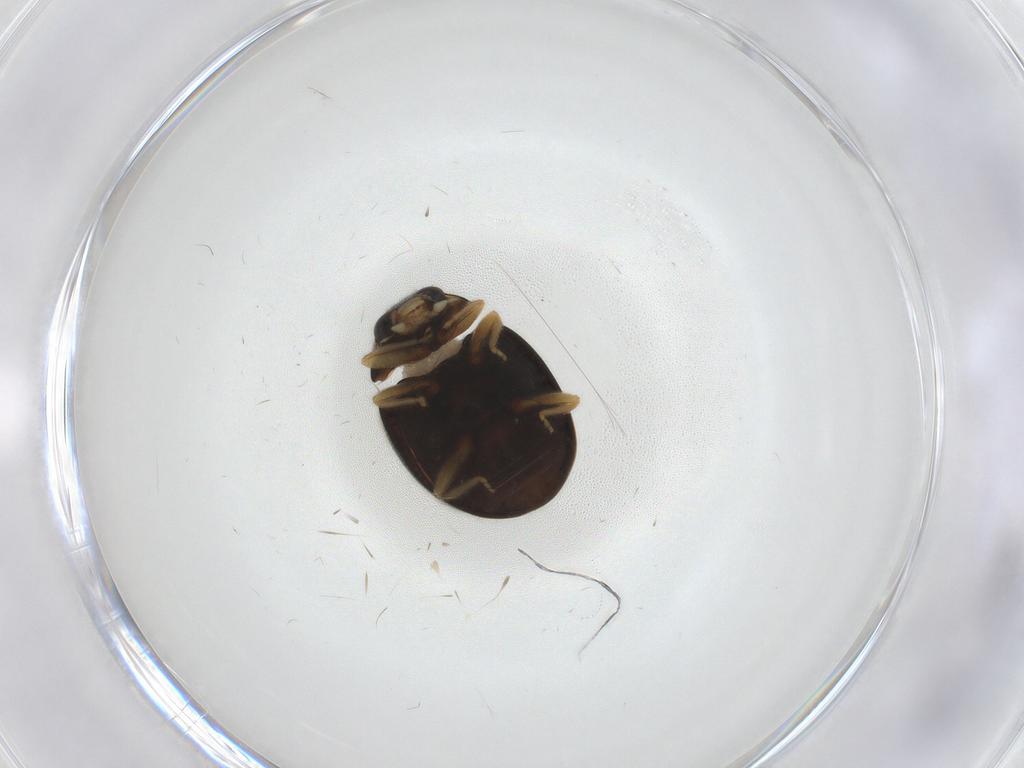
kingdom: Animalia
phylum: Arthropoda
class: Insecta
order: Coleoptera
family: Coccinellidae
